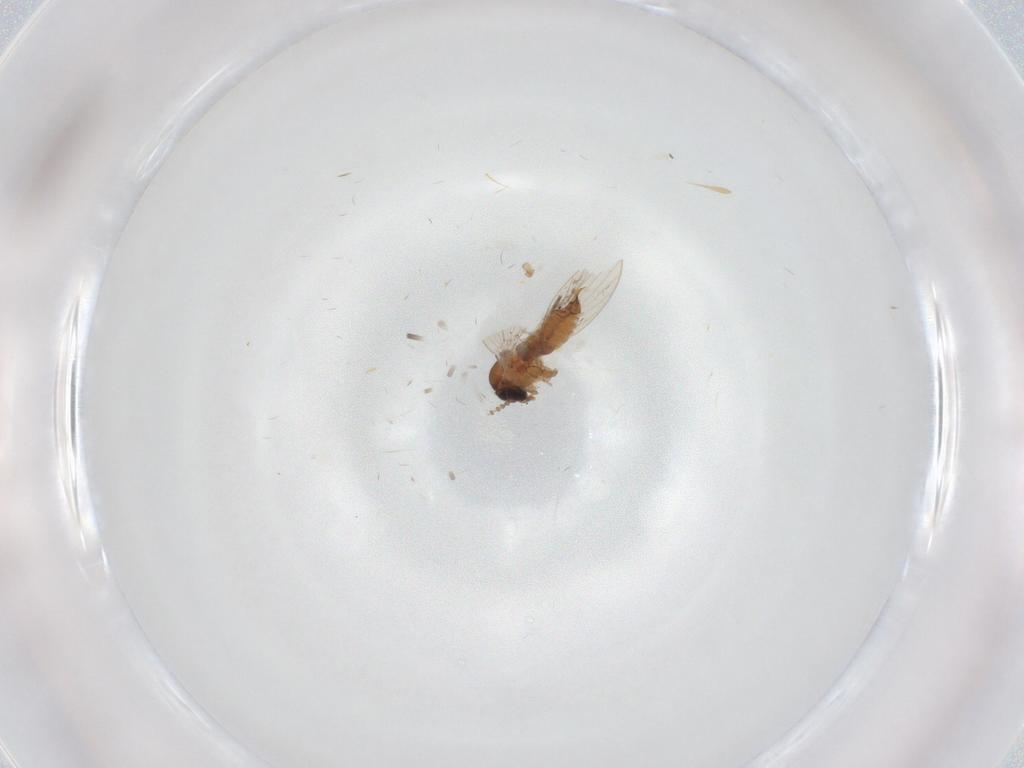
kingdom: Animalia
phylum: Arthropoda
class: Insecta
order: Diptera
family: Psychodidae
